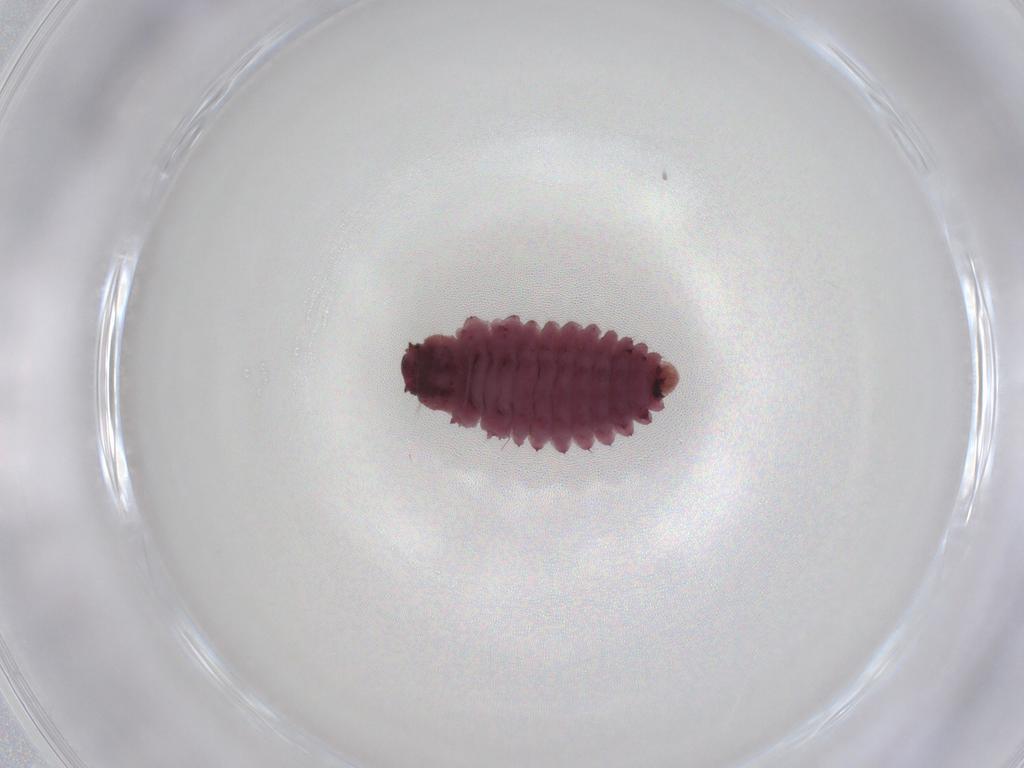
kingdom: Animalia
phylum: Arthropoda
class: Insecta
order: Coleoptera
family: Coccinellidae
